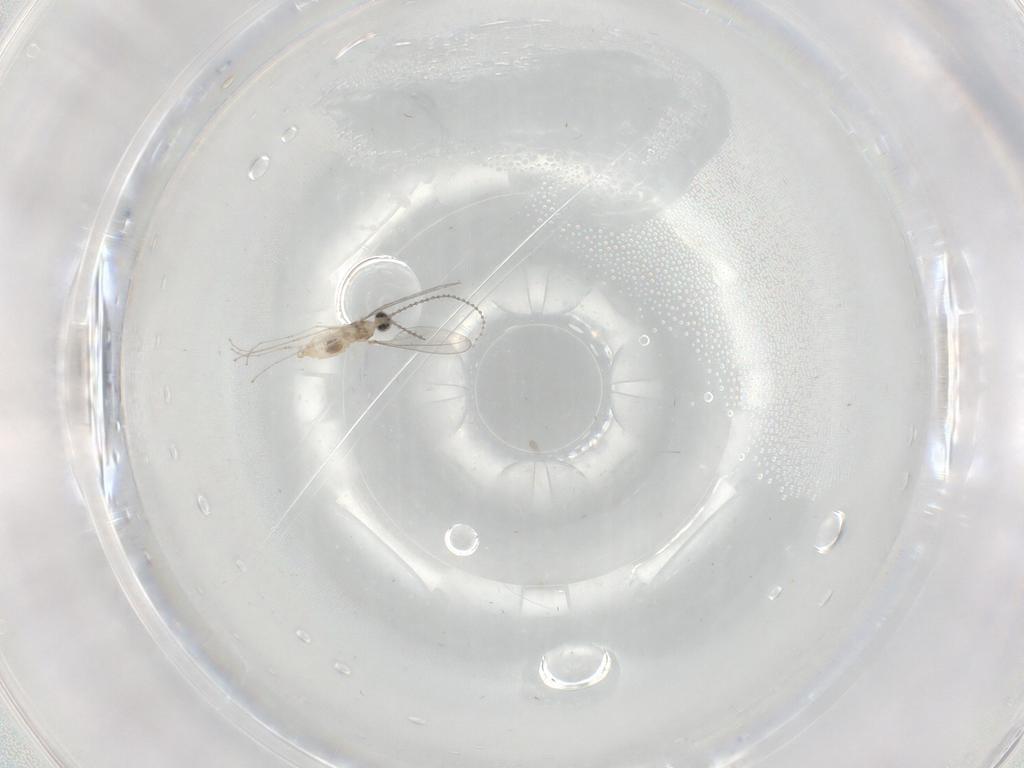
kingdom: Animalia
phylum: Arthropoda
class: Insecta
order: Diptera
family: Cecidomyiidae
